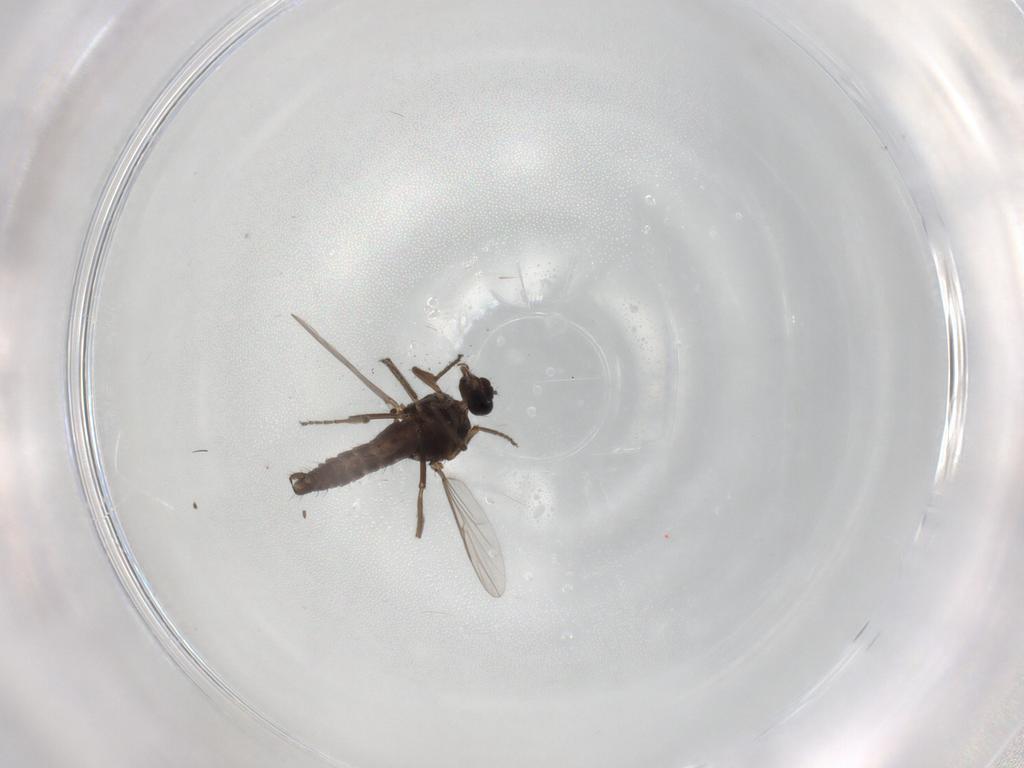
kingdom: Animalia
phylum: Arthropoda
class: Insecta
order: Diptera
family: Ceratopogonidae
